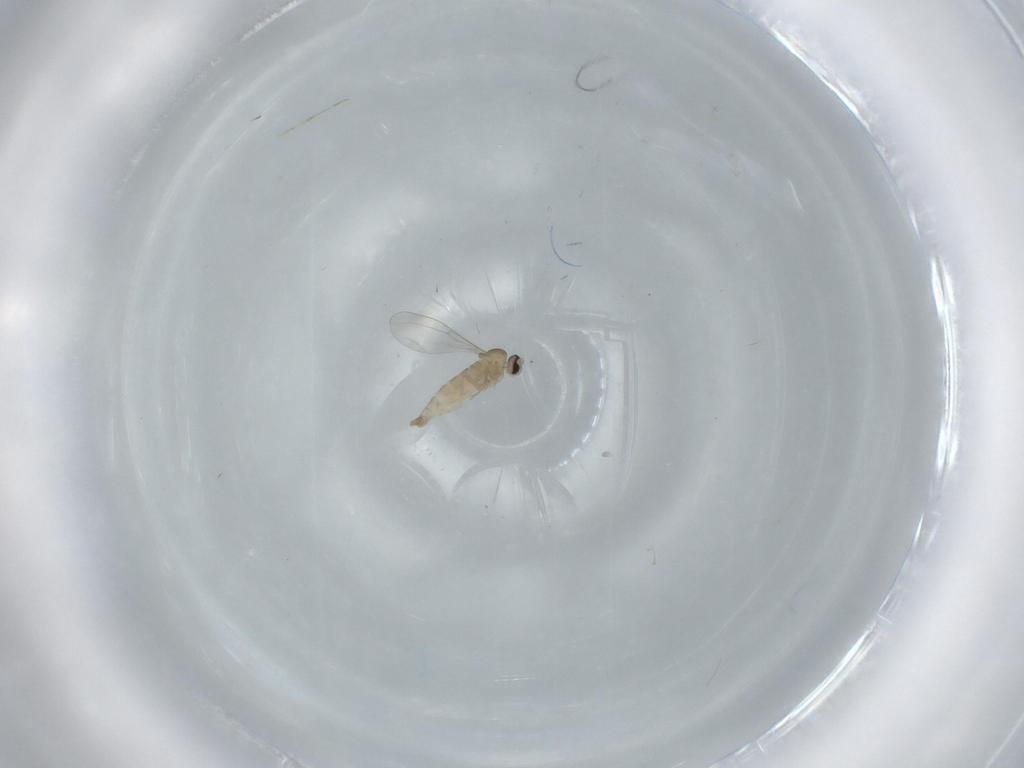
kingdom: Animalia
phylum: Arthropoda
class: Insecta
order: Diptera
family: Cecidomyiidae
